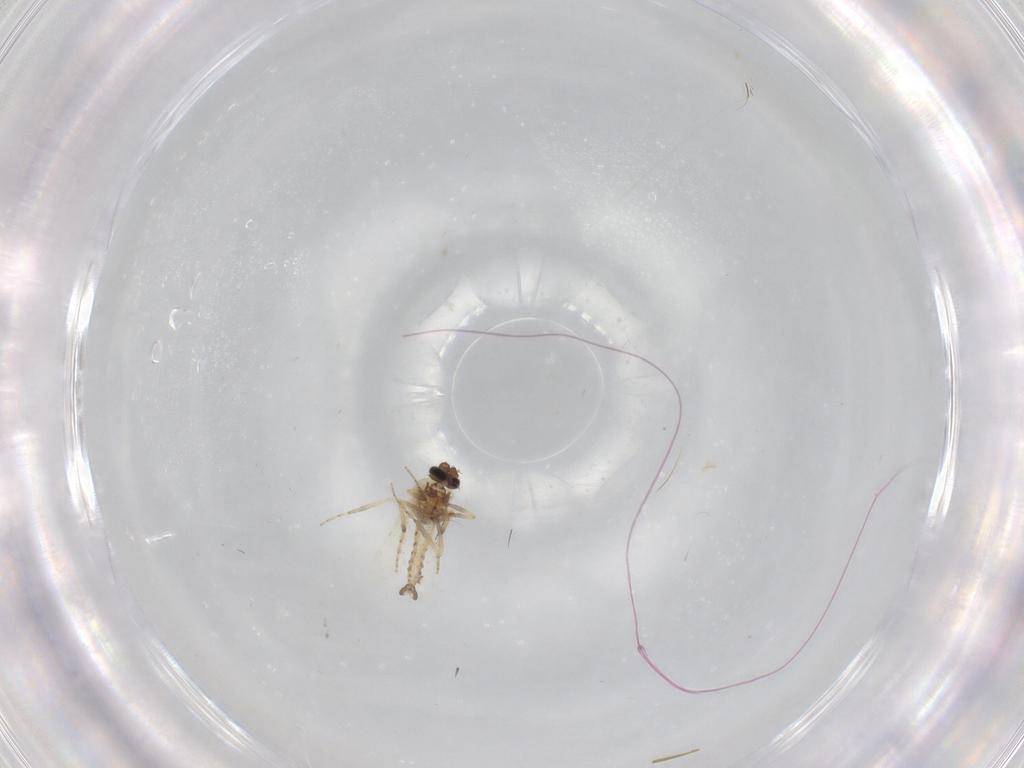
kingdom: Animalia
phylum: Arthropoda
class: Insecta
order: Diptera
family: Ceratopogonidae
